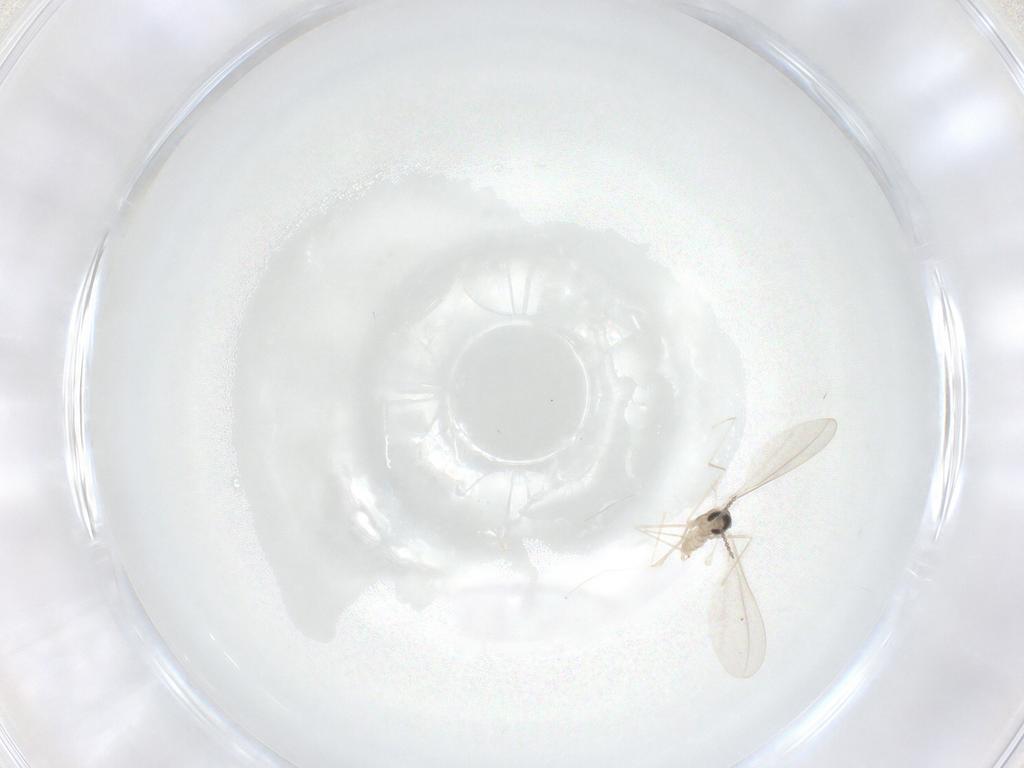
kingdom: Animalia
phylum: Arthropoda
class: Insecta
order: Diptera
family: Cecidomyiidae
